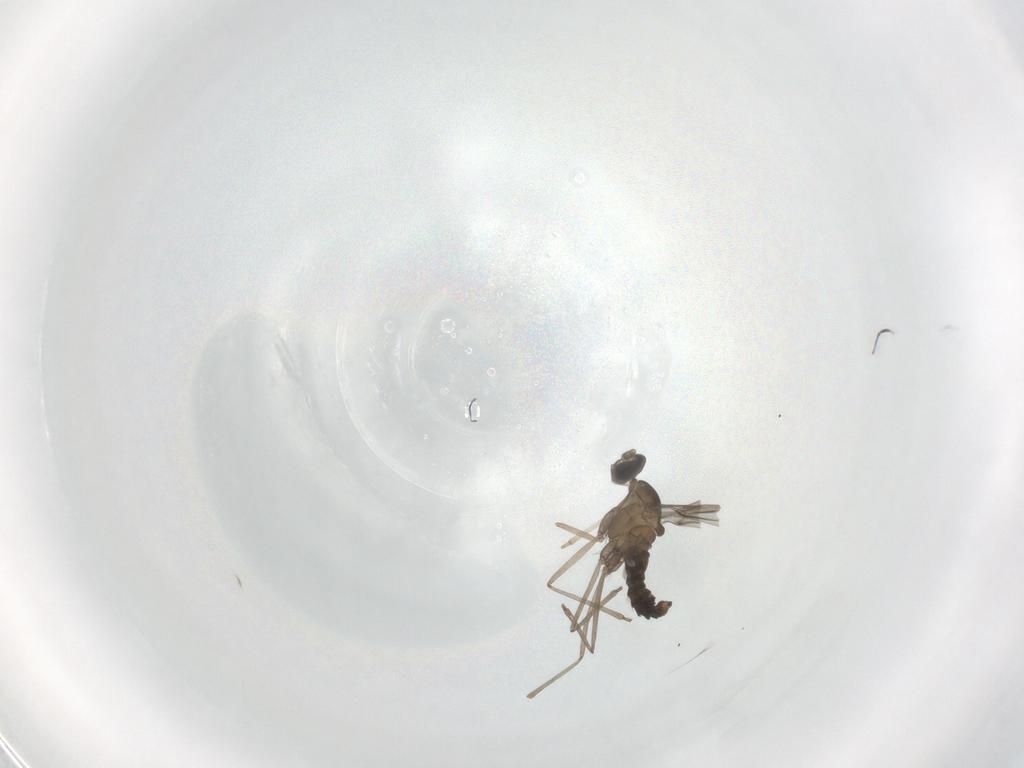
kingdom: Animalia
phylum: Arthropoda
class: Insecta
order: Diptera
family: Cecidomyiidae
